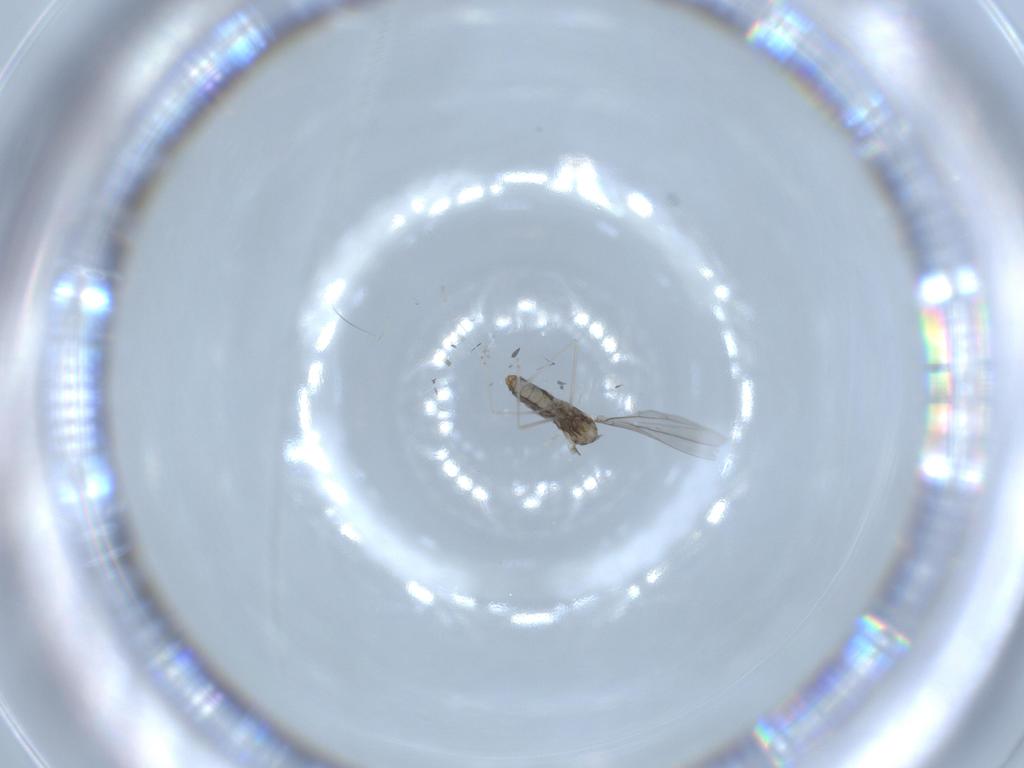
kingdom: Animalia
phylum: Arthropoda
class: Insecta
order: Diptera
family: Cecidomyiidae
